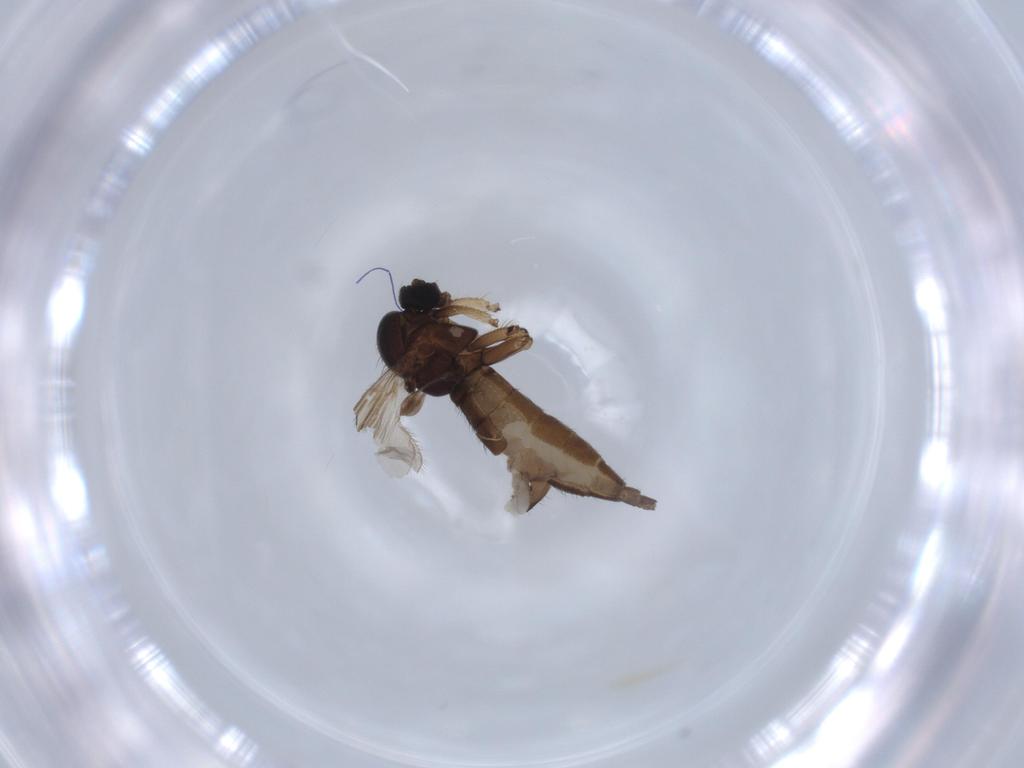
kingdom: Animalia
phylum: Arthropoda
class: Insecta
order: Diptera
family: Sciaridae
